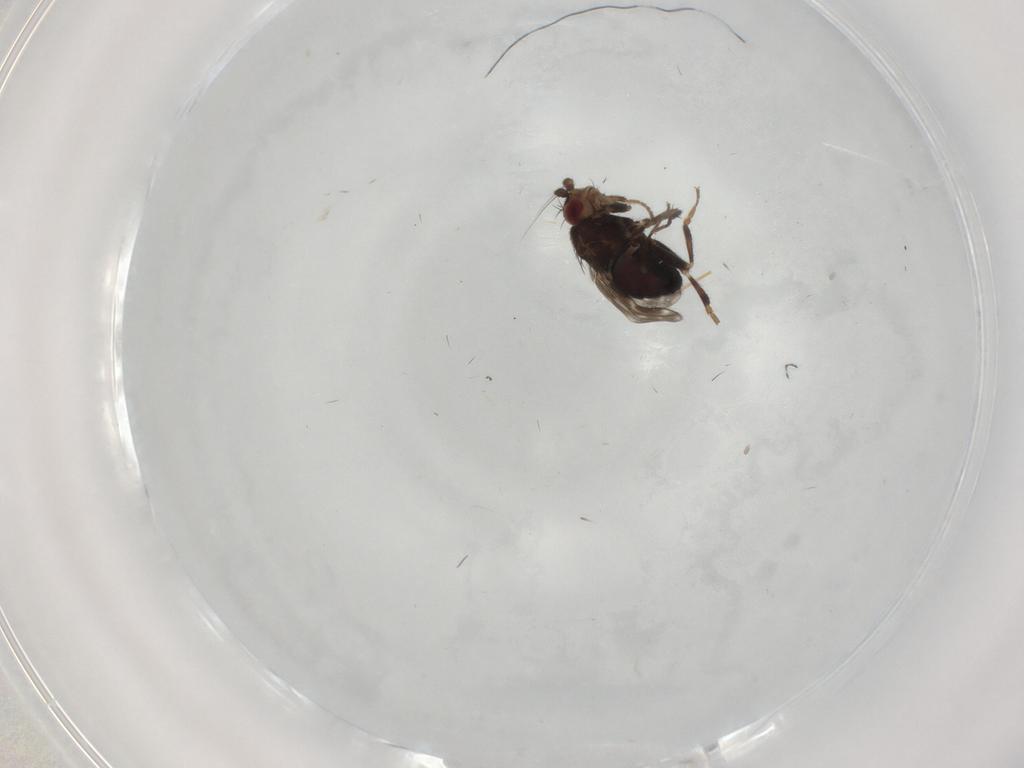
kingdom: Animalia
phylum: Arthropoda
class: Insecta
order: Diptera
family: Sphaeroceridae
